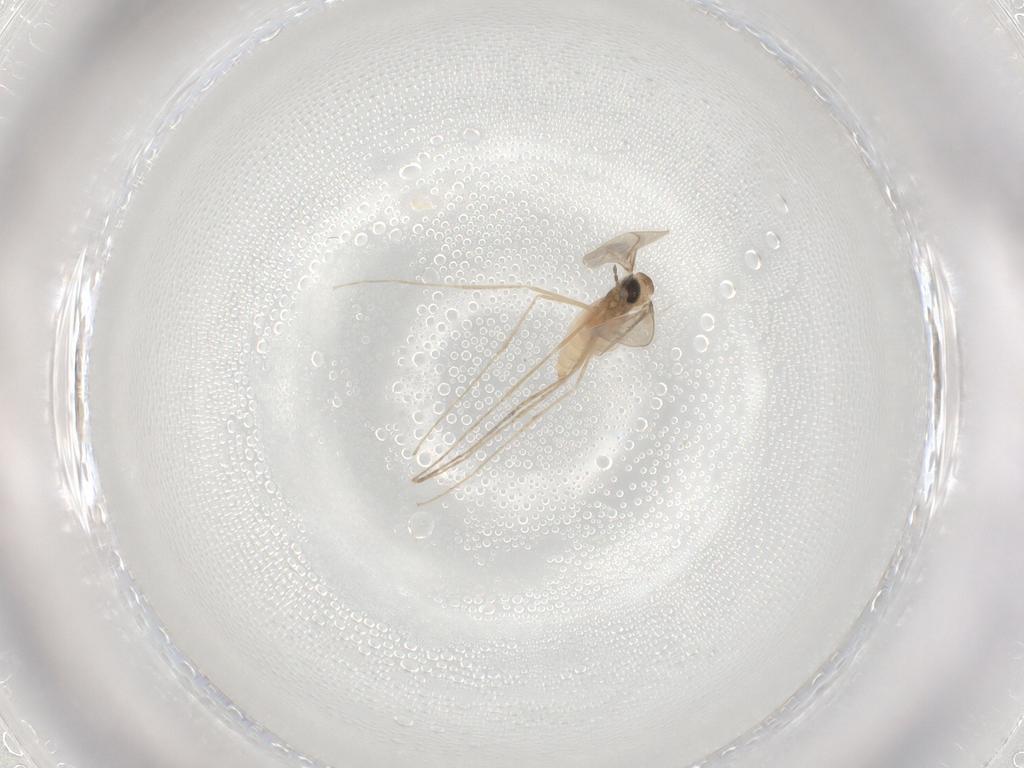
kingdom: Animalia
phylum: Arthropoda
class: Insecta
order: Diptera
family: Cecidomyiidae
